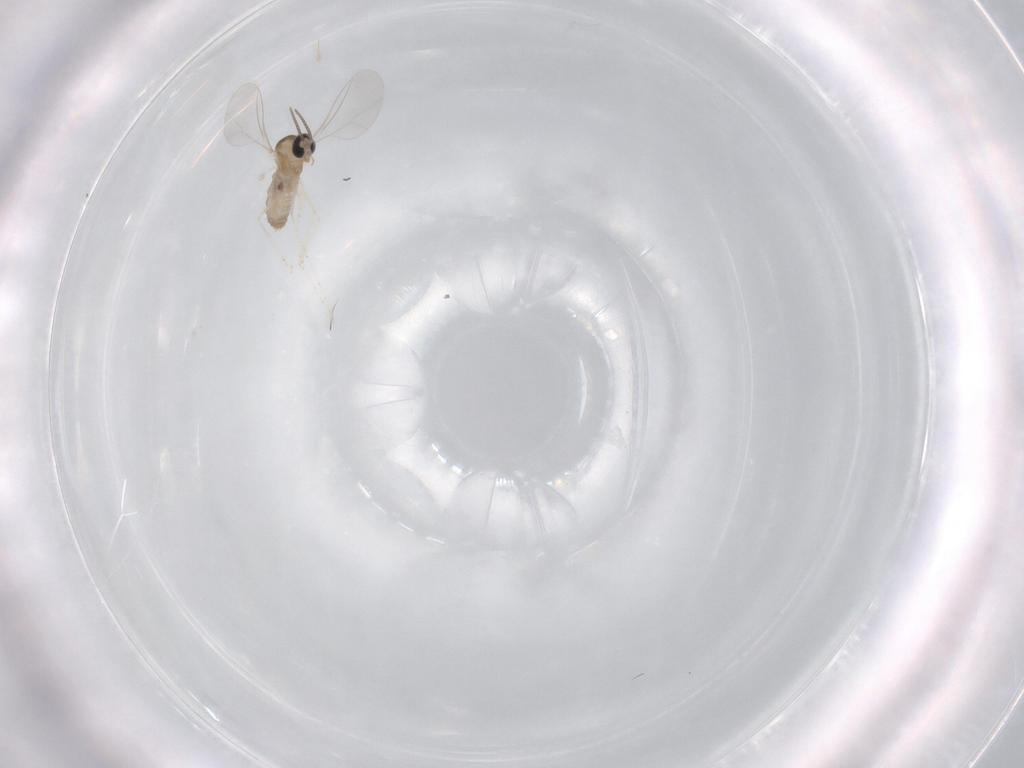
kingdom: Animalia
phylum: Arthropoda
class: Insecta
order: Diptera
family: Cecidomyiidae
